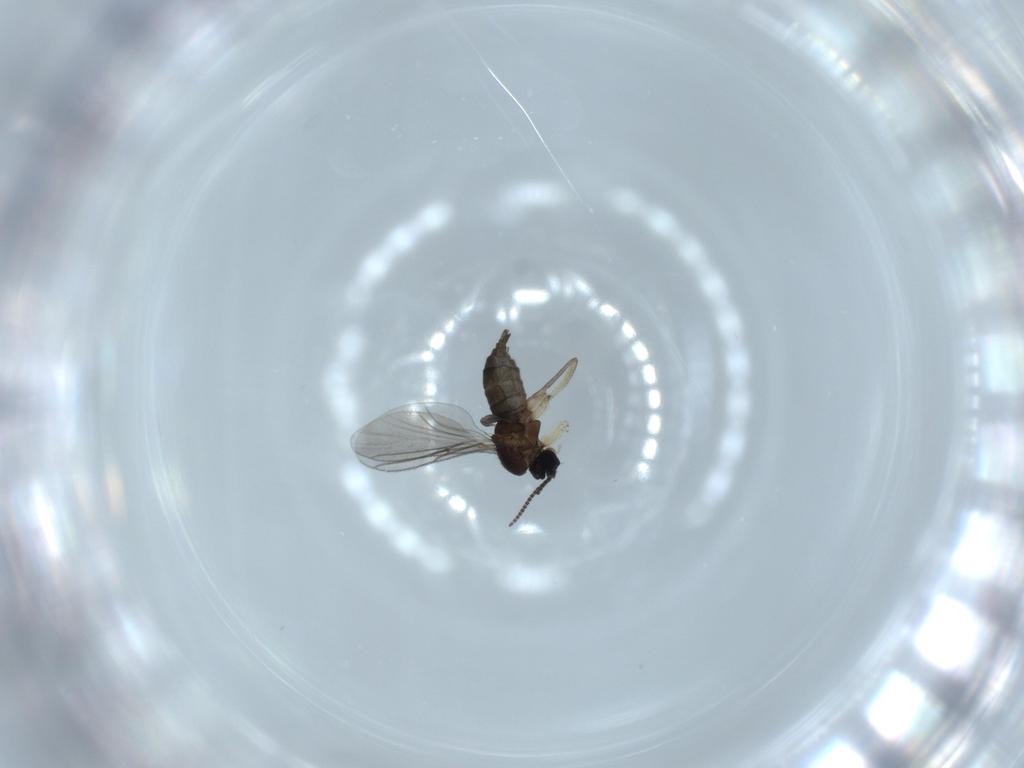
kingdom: Animalia
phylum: Arthropoda
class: Insecta
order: Diptera
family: Sciaridae
